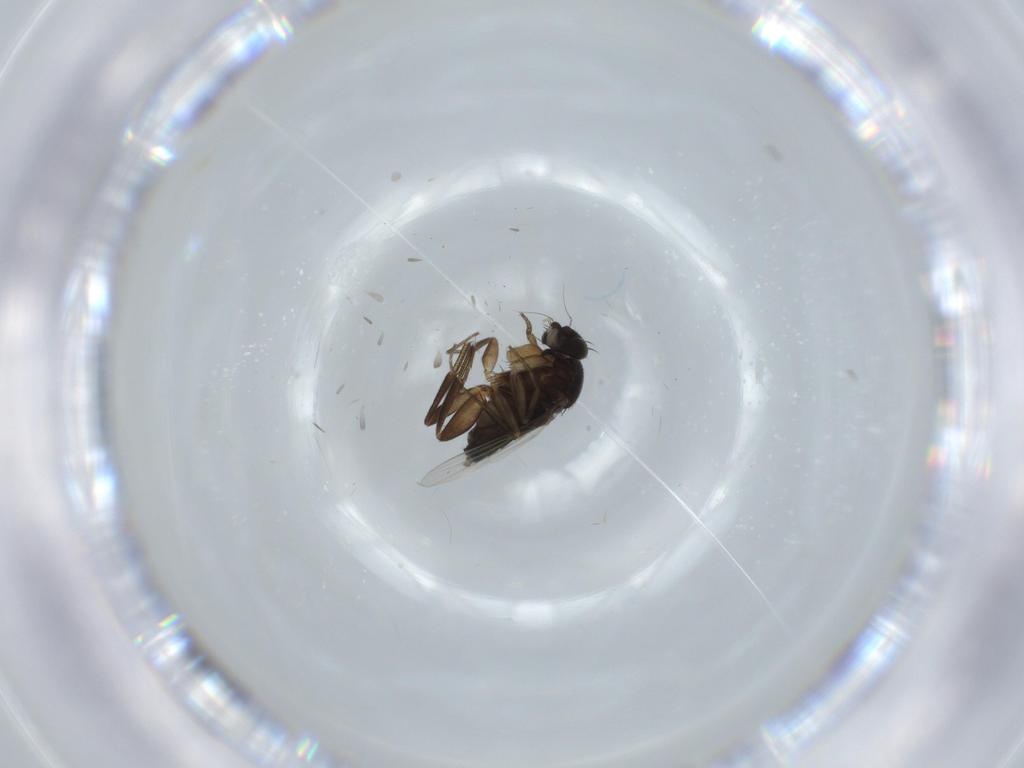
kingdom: Animalia
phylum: Arthropoda
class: Insecta
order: Diptera
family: Phoridae
